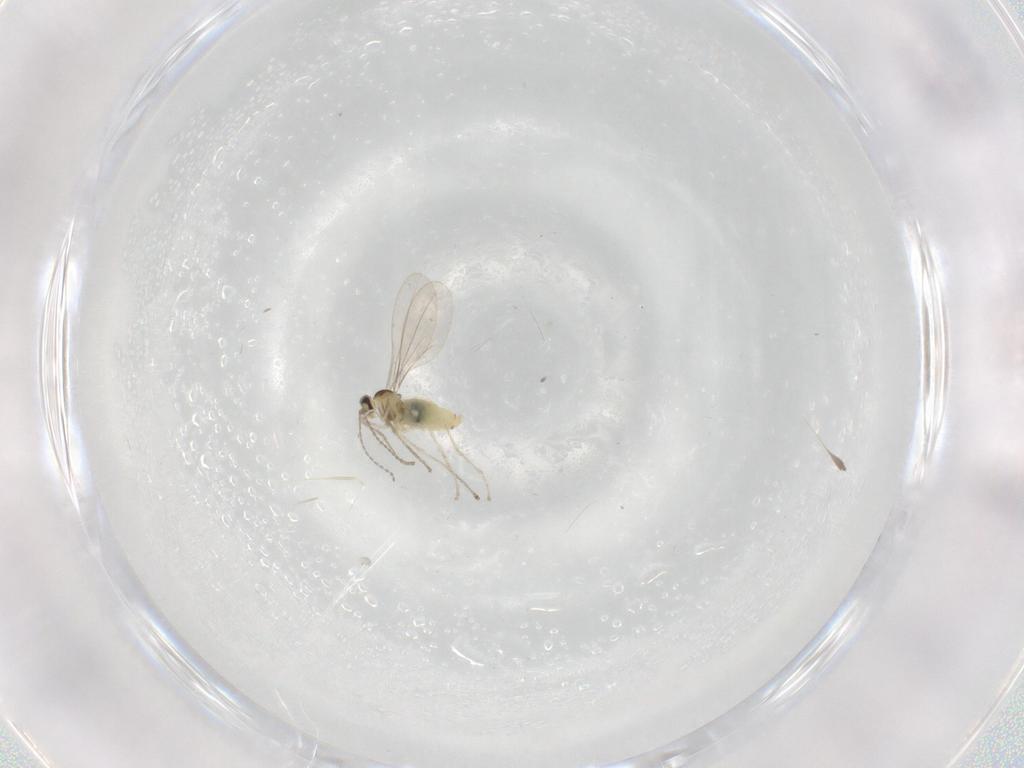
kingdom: Animalia
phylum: Arthropoda
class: Insecta
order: Diptera
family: Cecidomyiidae
